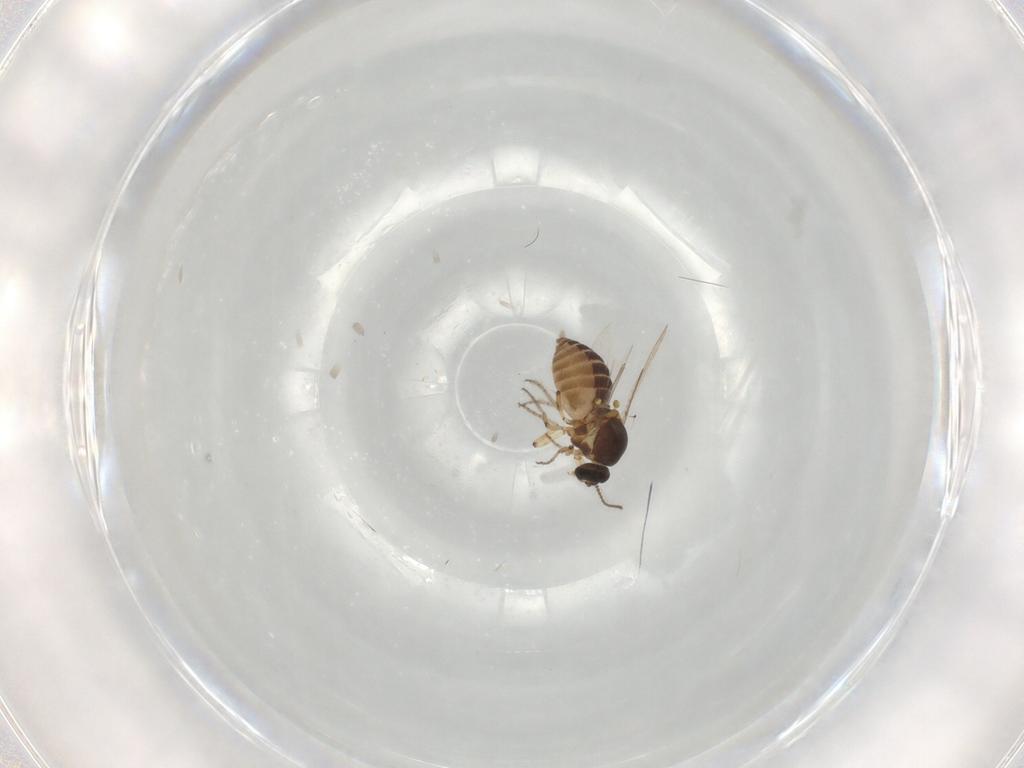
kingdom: Animalia
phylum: Arthropoda
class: Insecta
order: Diptera
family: Ceratopogonidae
